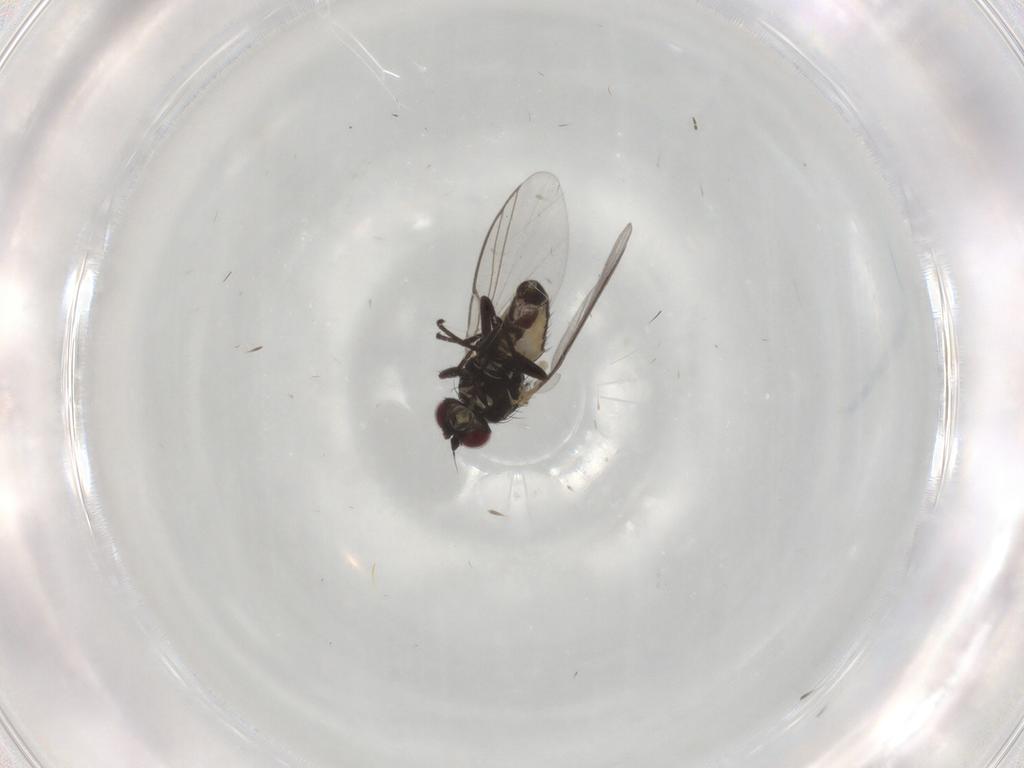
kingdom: Animalia
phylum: Arthropoda
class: Insecta
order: Diptera
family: Agromyzidae
